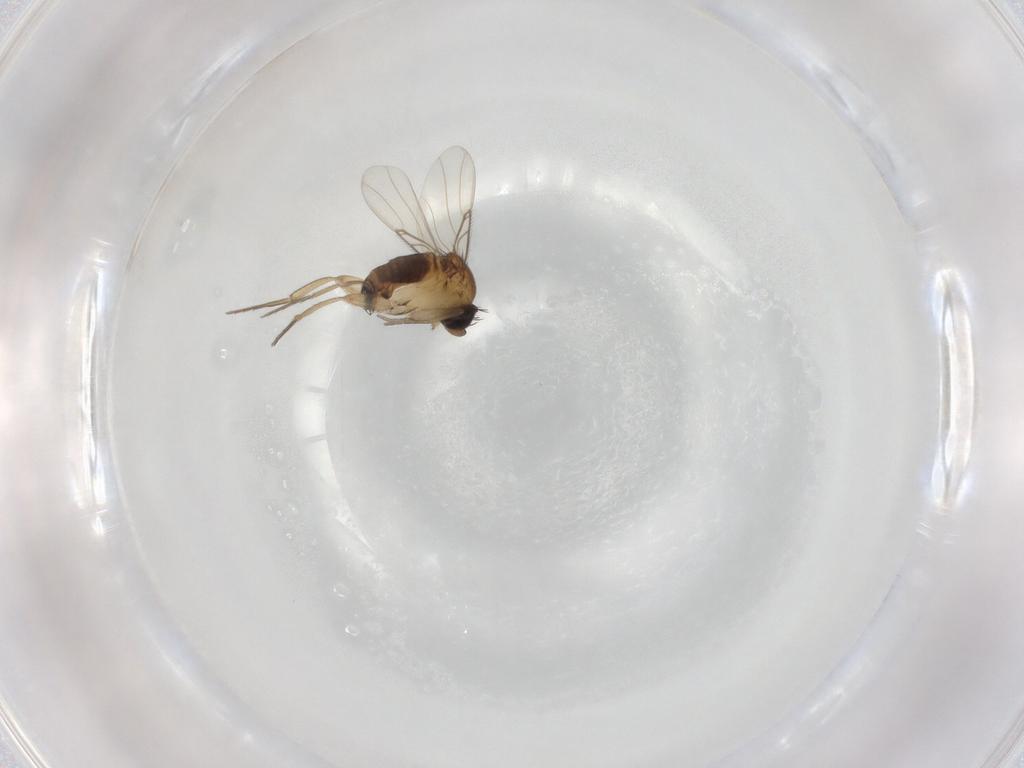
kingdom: Animalia
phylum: Arthropoda
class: Insecta
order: Diptera
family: Phoridae
